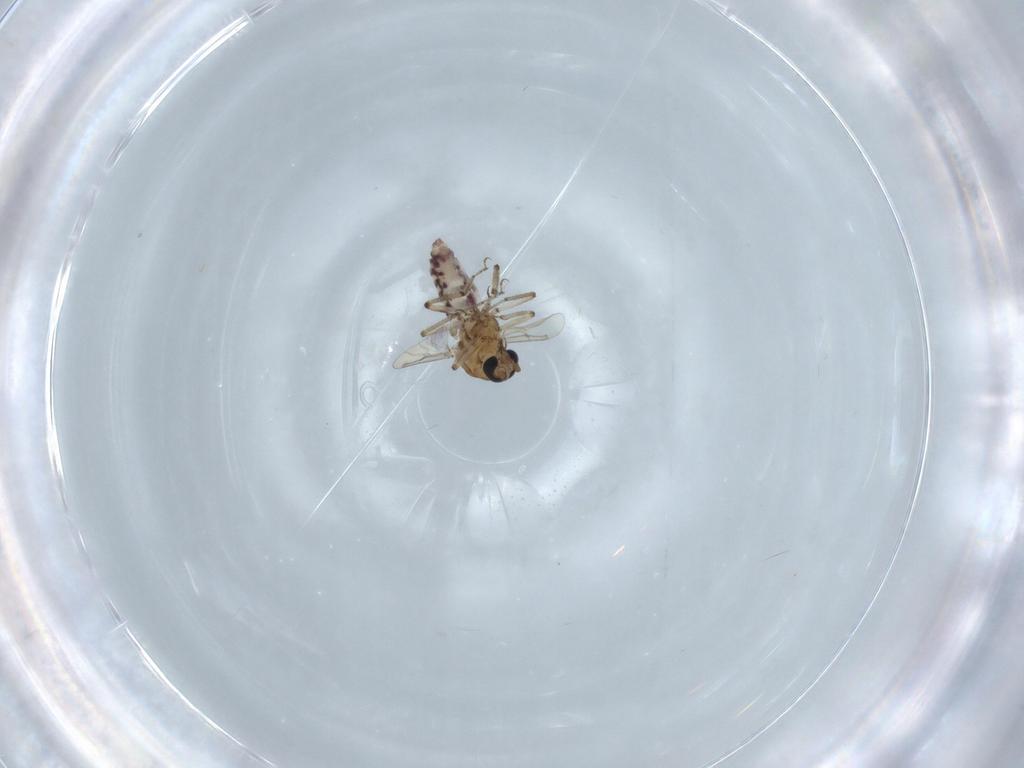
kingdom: Animalia
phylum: Arthropoda
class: Insecta
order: Diptera
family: Ceratopogonidae
